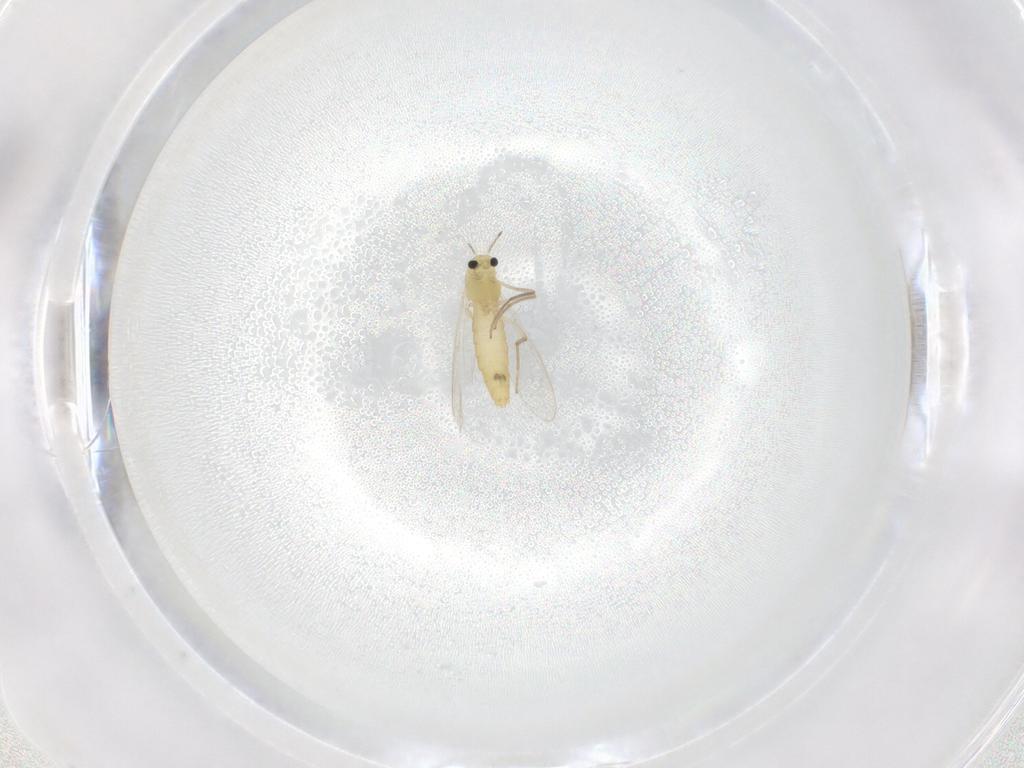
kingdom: Animalia
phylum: Arthropoda
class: Insecta
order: Diptera
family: Chironomidae
